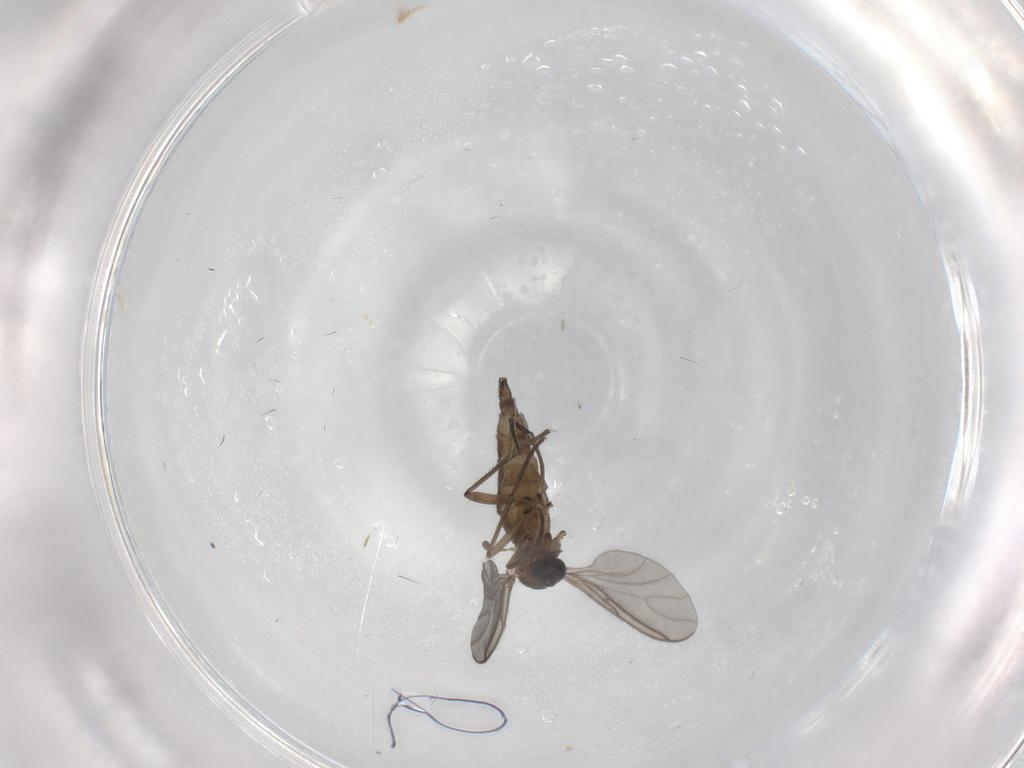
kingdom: Animalia
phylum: Arthropoda
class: Insecta
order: Diptera
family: Sciaridae
